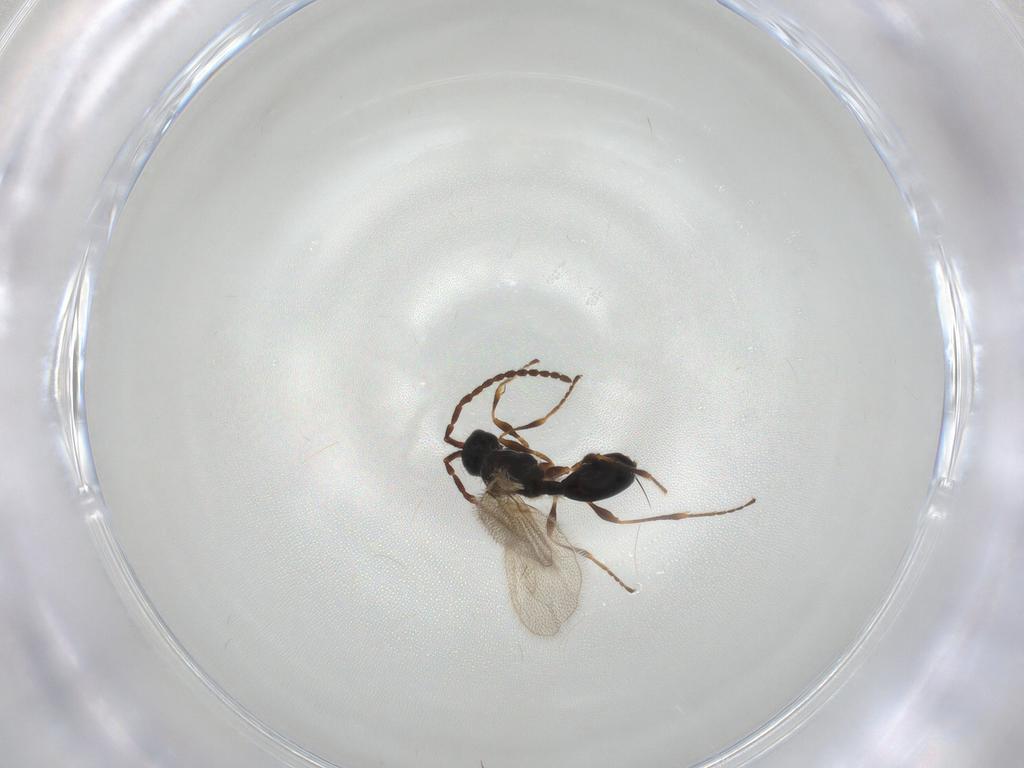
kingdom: Animalia
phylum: Arthropoda
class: Insecta
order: Hymenoptera
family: Diapriidae
